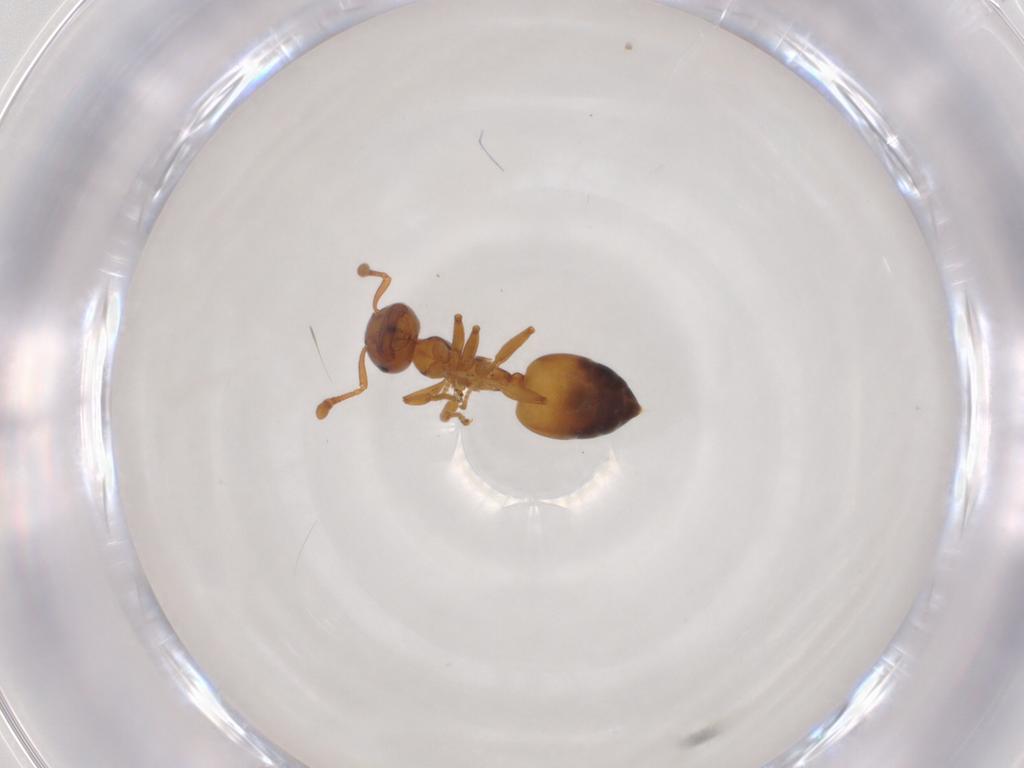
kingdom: Animalia
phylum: Arthropoda
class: Insecta
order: Hymenoptera
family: Formicidae
